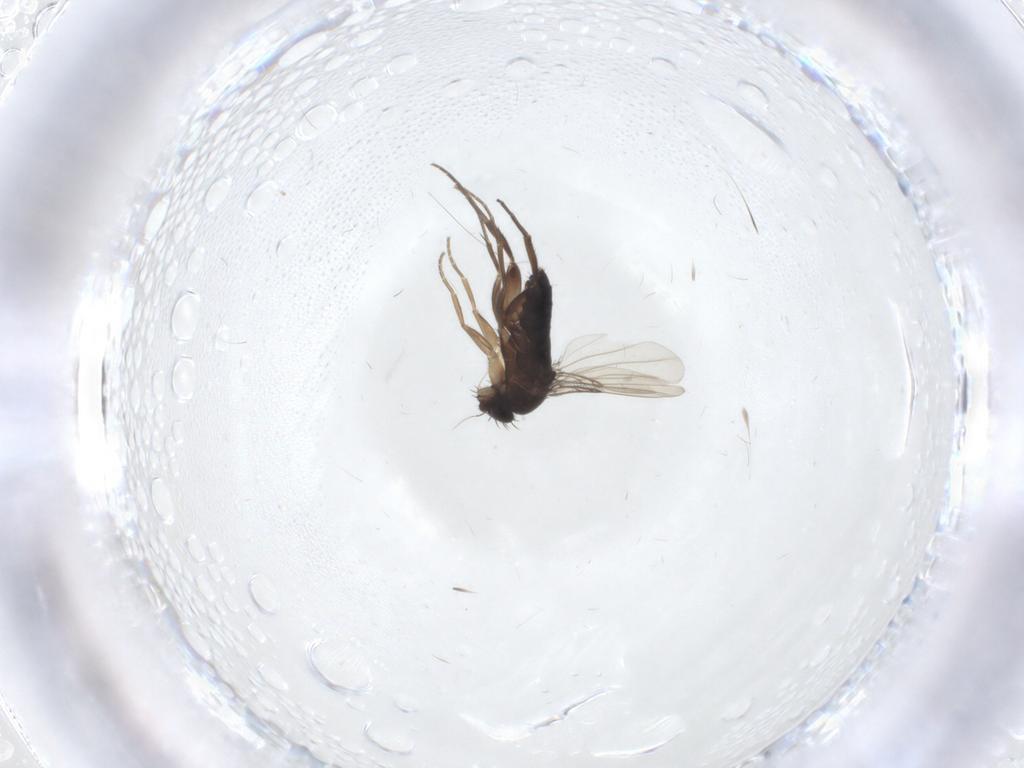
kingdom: Animalia
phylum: Arthropoda
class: Insecta
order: Diptera
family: Phoridae
